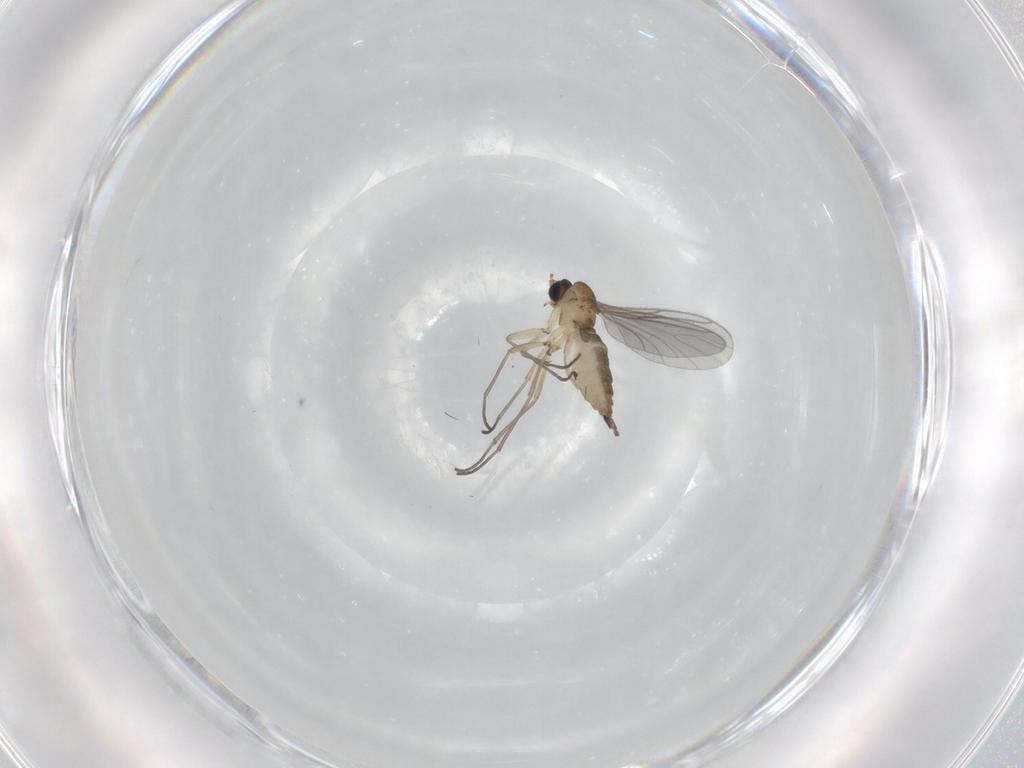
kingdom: Animalia
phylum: Arthropoda
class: Insecta
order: Diptera
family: Sciaridae
